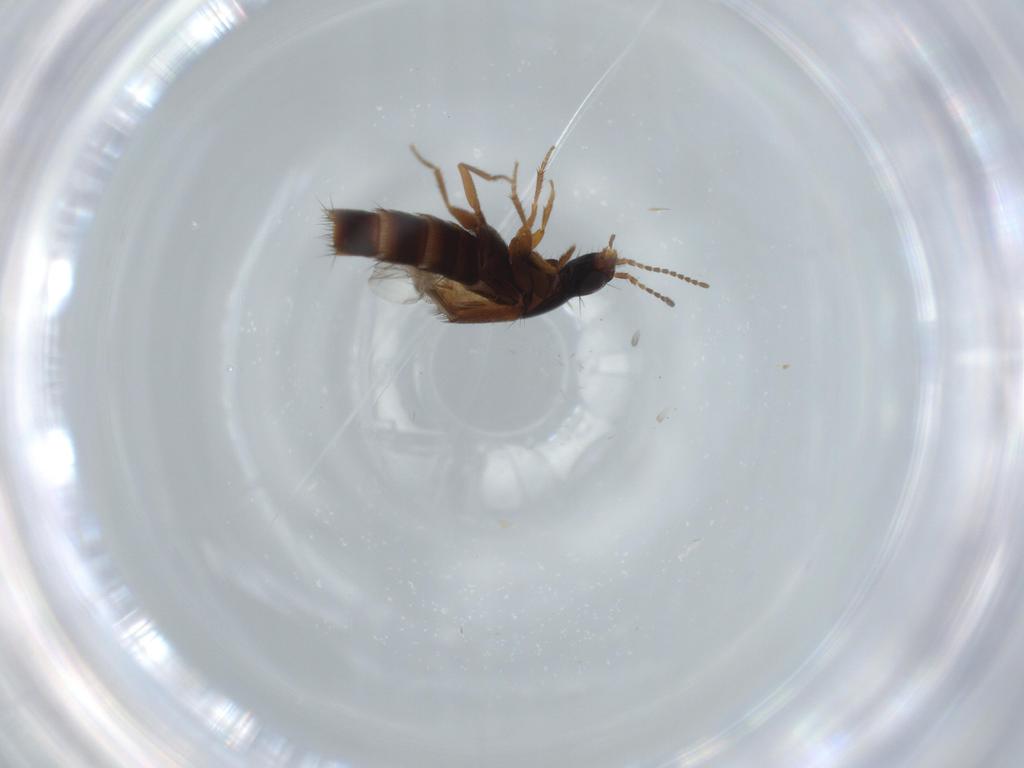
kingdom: Animalia
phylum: Arthropoda
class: Insecta
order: Coleoptera
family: Staphylinidae
